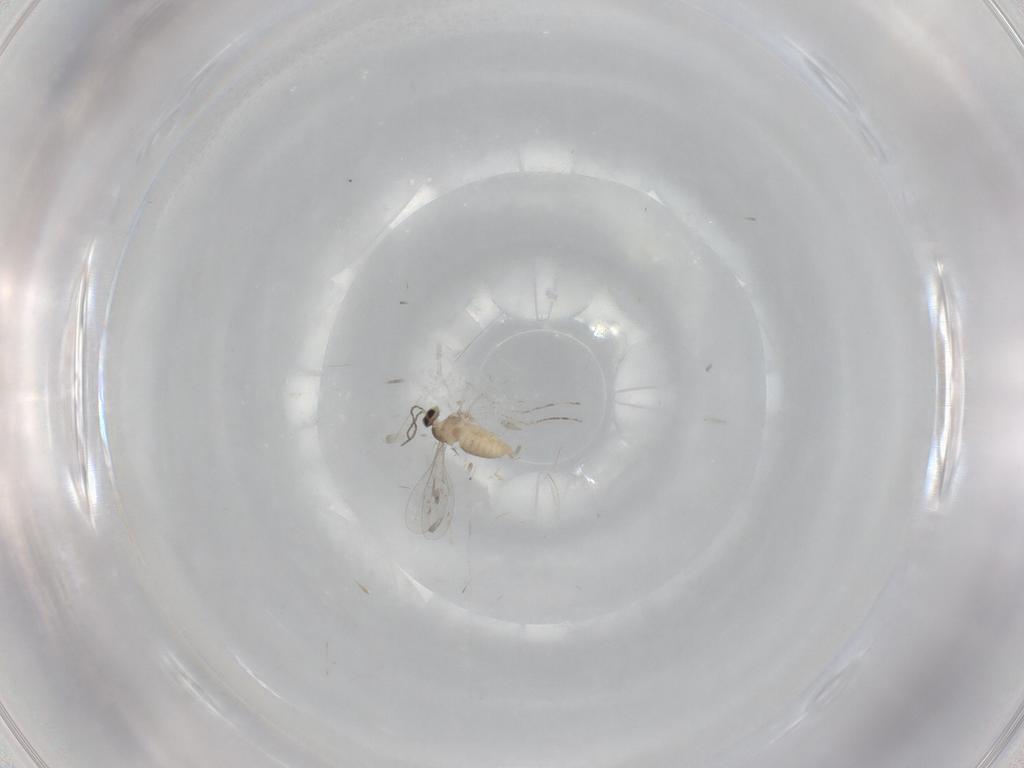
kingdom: Animalia
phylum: Arthropoda
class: Insecta
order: Diptera
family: Cecidomyiidae
